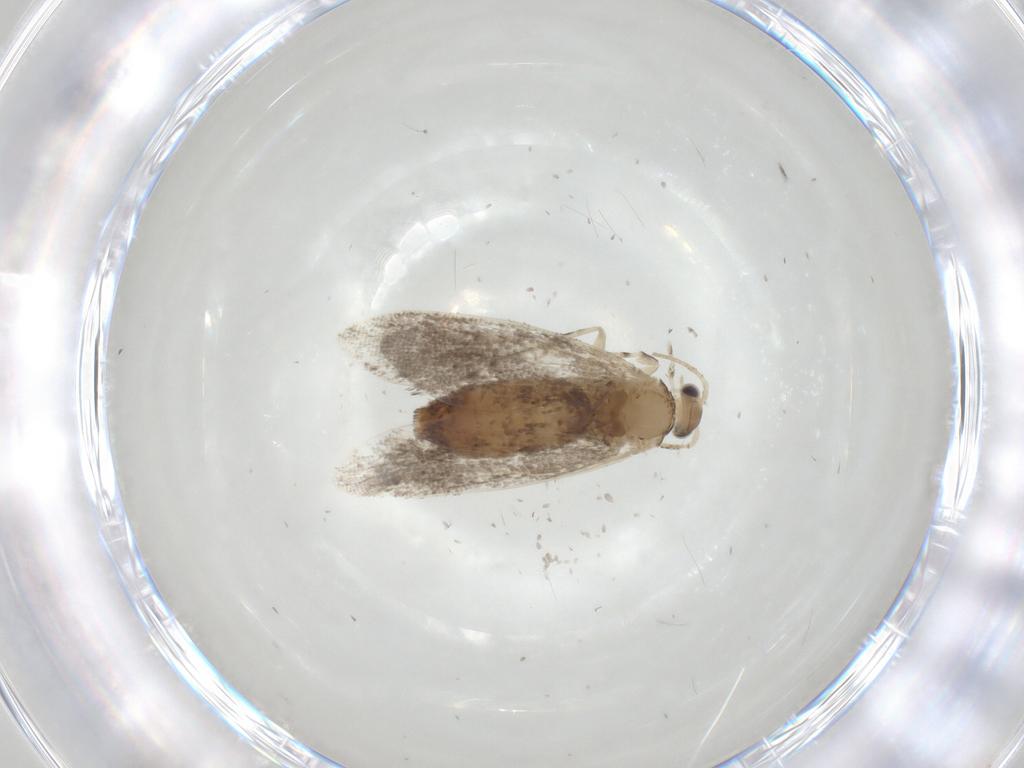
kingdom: Animalia
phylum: Arthropoda
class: Insecta
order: Lepidoptera
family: Tineidae
